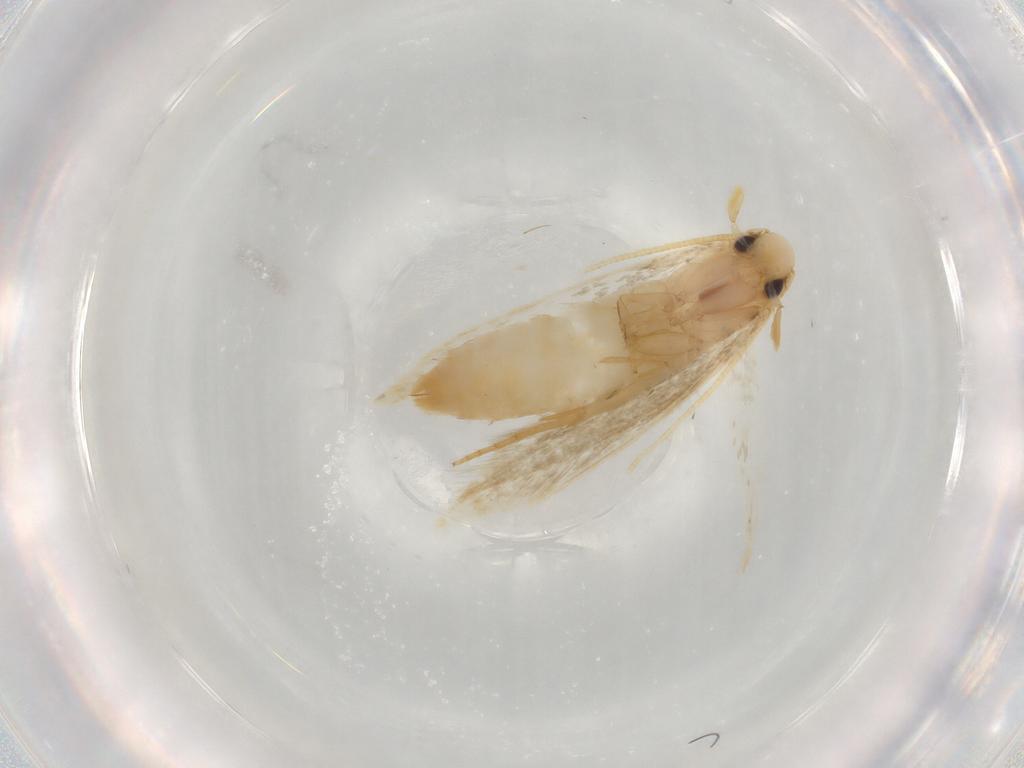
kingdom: Animalia
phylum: Arthropoda
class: Insecta
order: Lepidoptera
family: Tineidae
